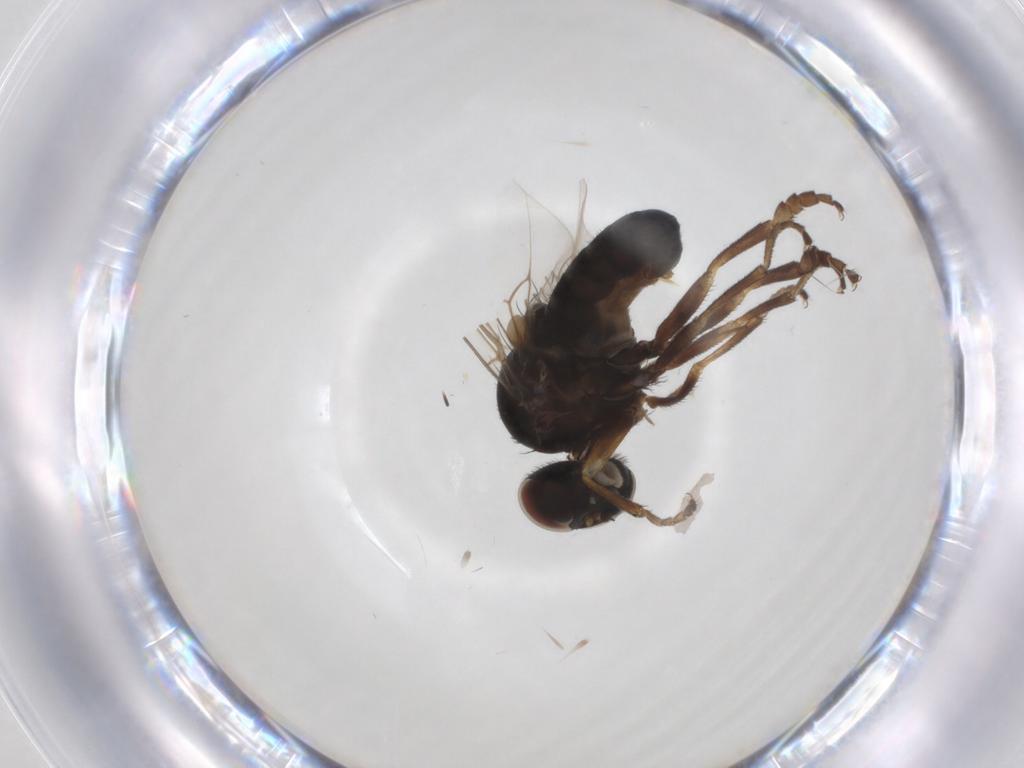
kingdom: Animalia
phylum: Arthropoda
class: Insecta
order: Diptera
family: Platypezidae
